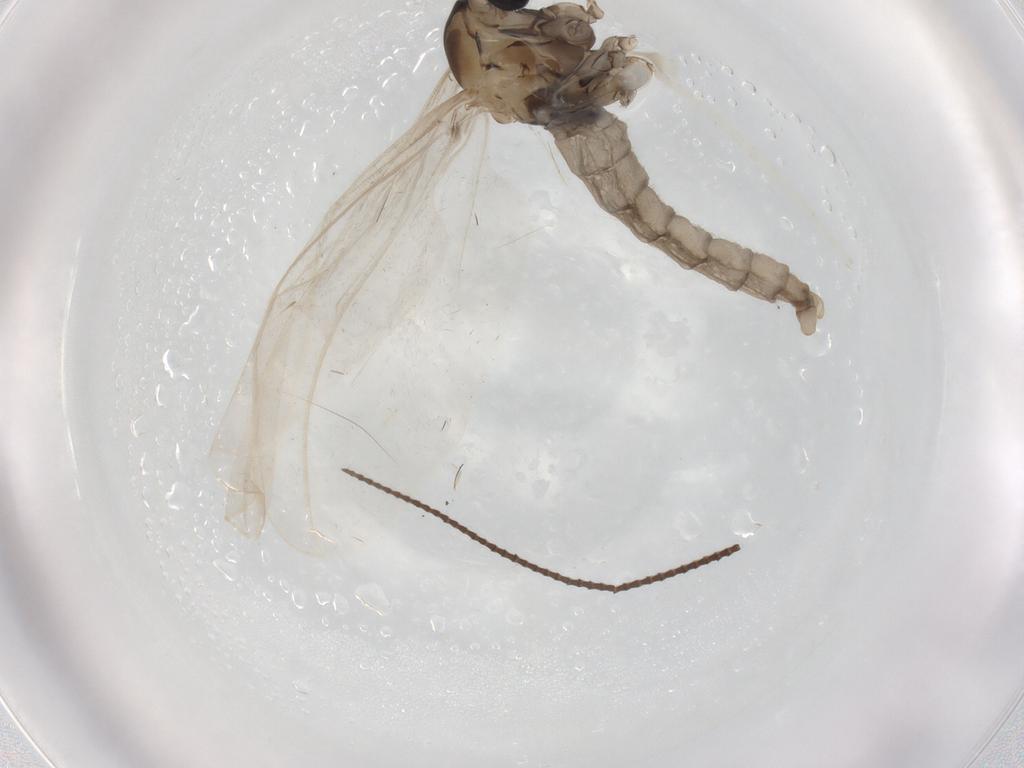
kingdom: Animalia
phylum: Arthropoda
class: Insecta
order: Diptera
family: Cecidomyiidae
